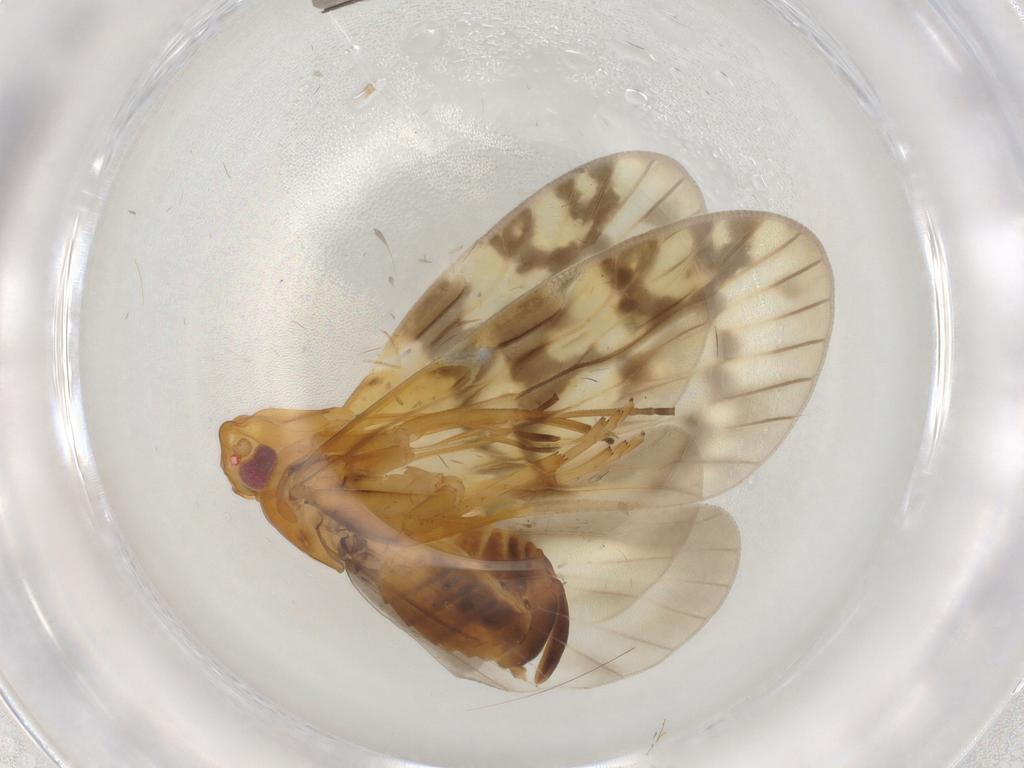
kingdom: Animalia
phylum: Arthropoda
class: Insecta
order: Hemiptera
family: Cixiidae
